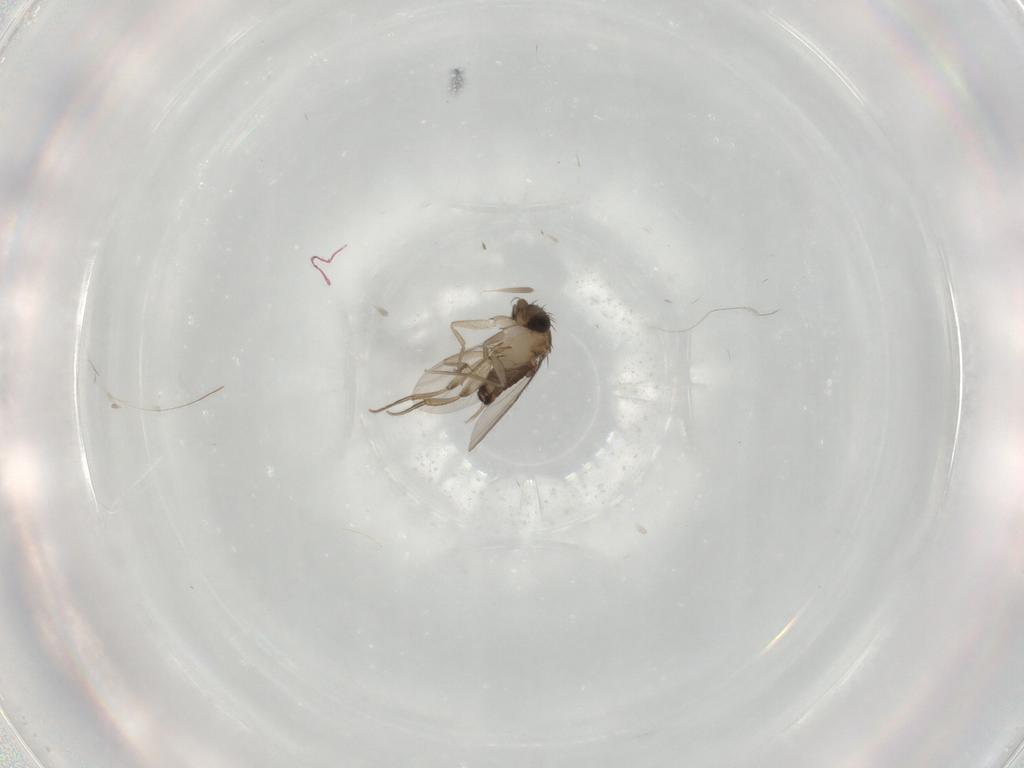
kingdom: Animalia
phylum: Arthropoda
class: Insecta
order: Diptera
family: Phoridae
